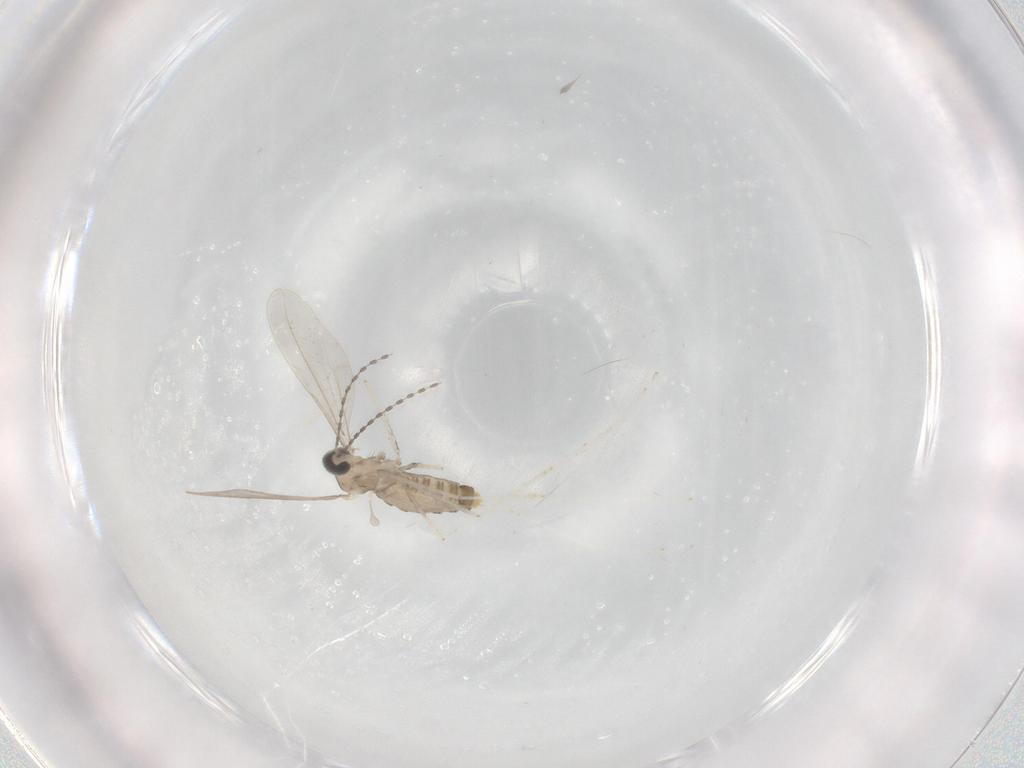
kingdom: Animalia
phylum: Arthropoda
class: Insecta
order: Diptera
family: Cecidomyiidae
